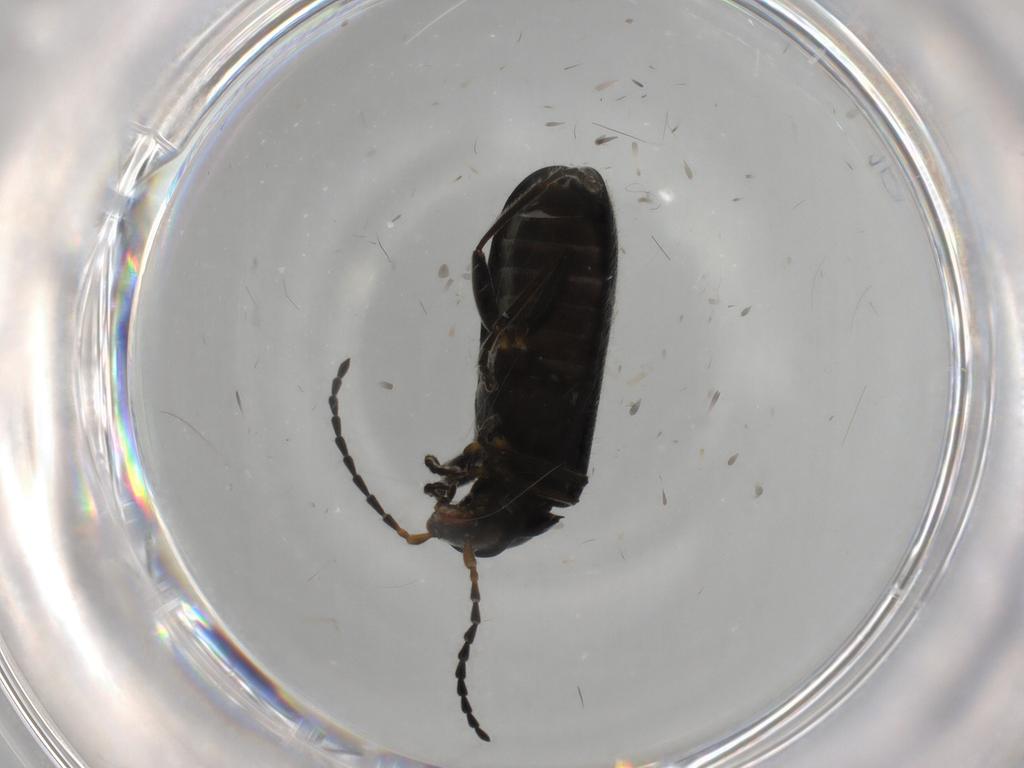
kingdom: Animalia
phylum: Arthropoda
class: Insecta
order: Coleoptera
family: Cantharidae
